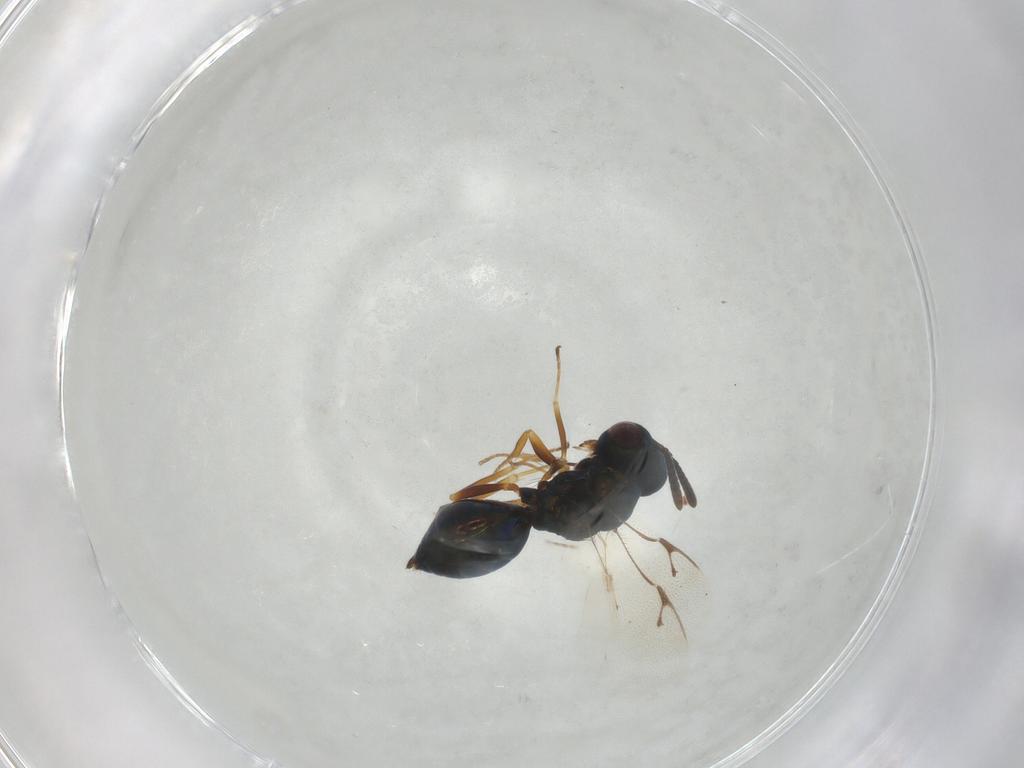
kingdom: Animalia
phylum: Arthropoda
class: Insecta
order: Hymenoptera
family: Pteromalidae
